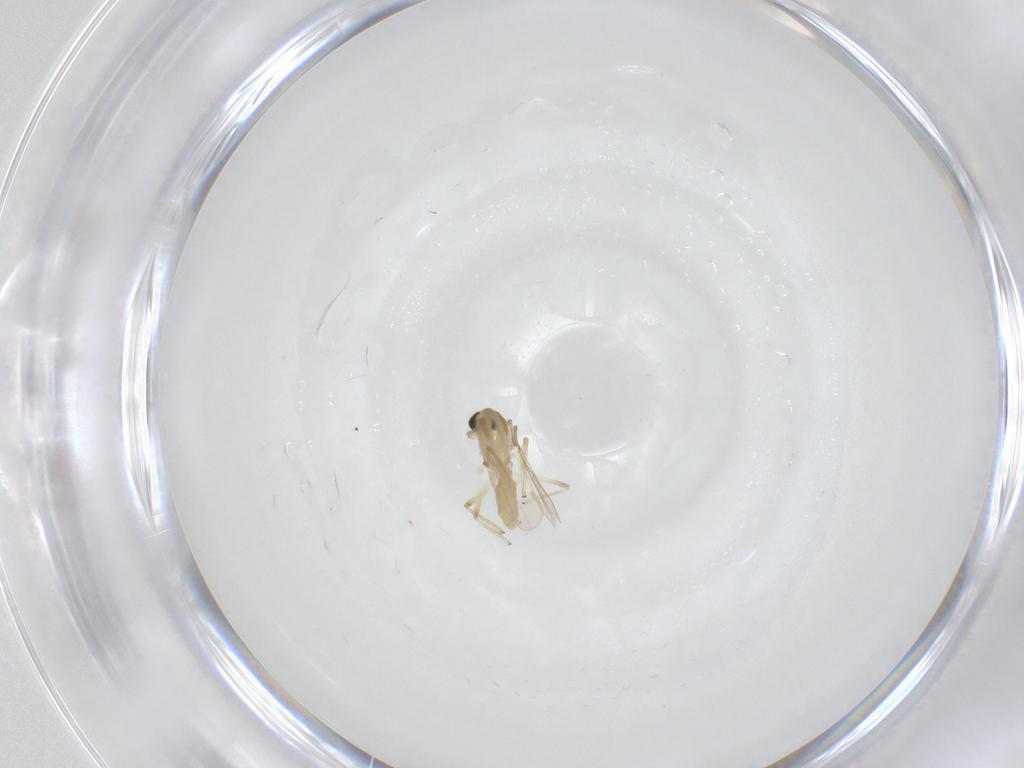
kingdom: Animalia
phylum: Arthropoda
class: Insecta
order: Diptera
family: Chironomidae
